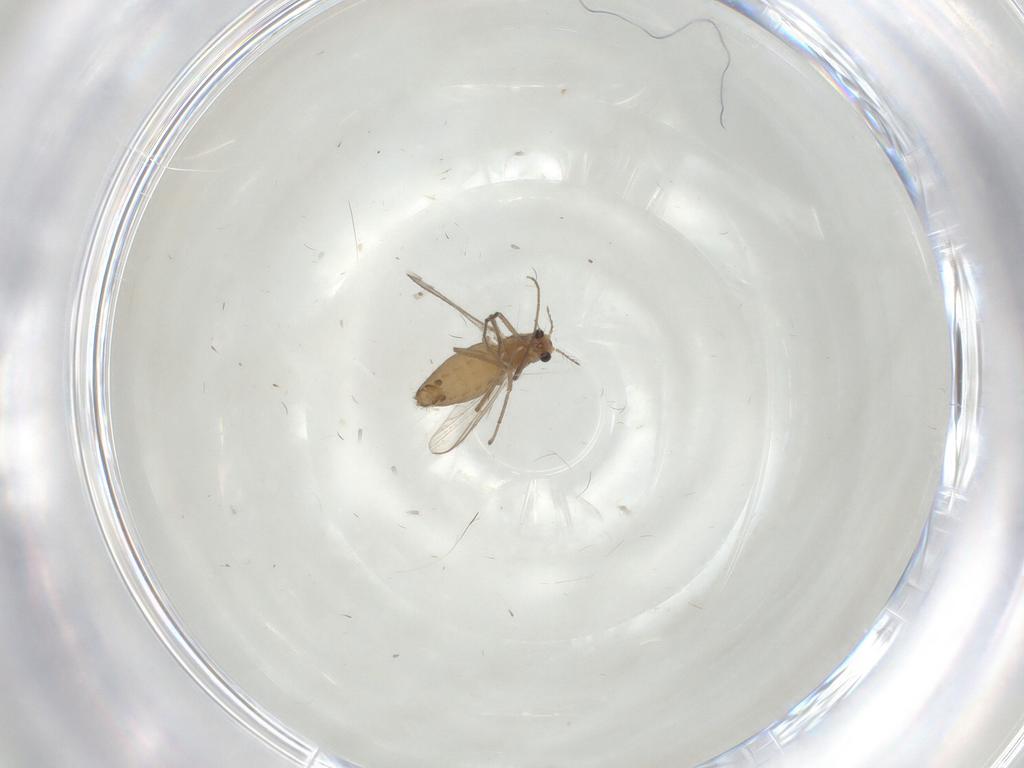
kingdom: Animalia
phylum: Arthropoda
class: Insecta
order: Diptera
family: Chironomidae
